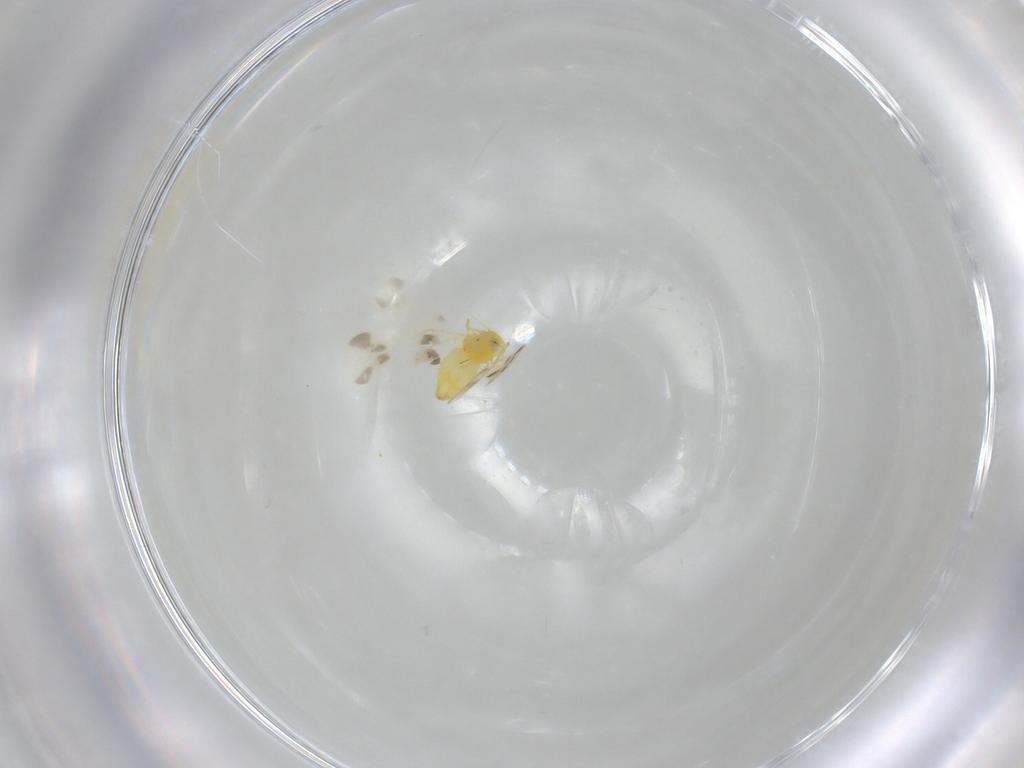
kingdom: Animalia
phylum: Arthropoda
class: Insecta
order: Hemiptera
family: Aleyrodidae
